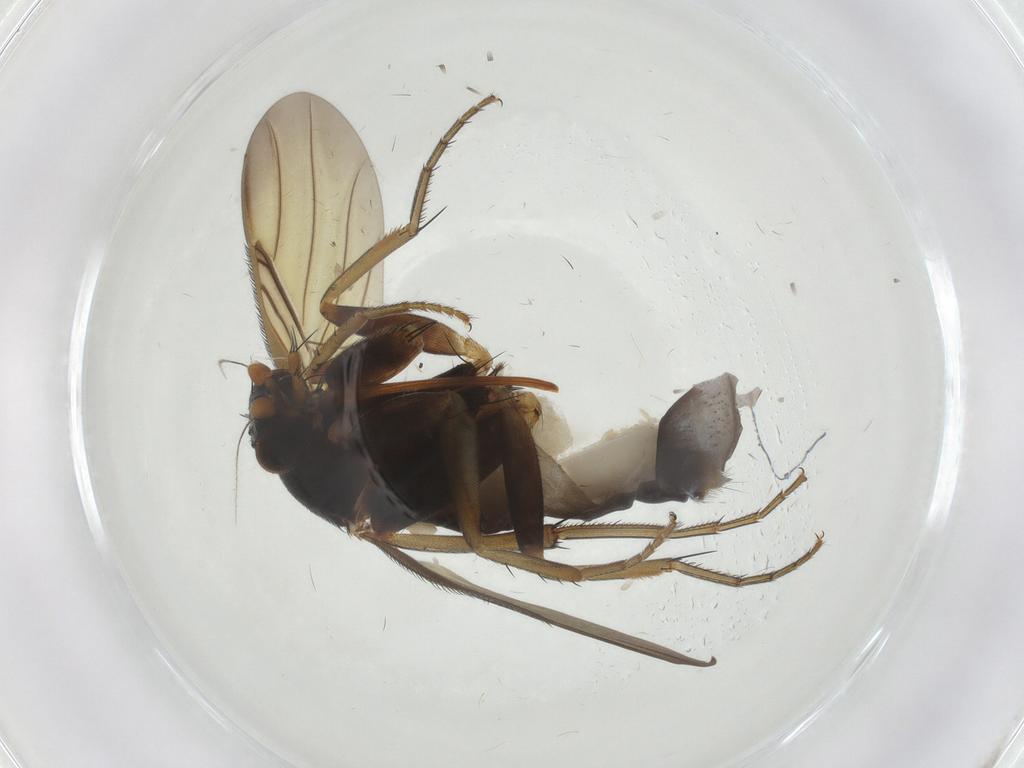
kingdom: Animalia
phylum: Arthropoda
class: Insecta
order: Diptera
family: Phoridae
